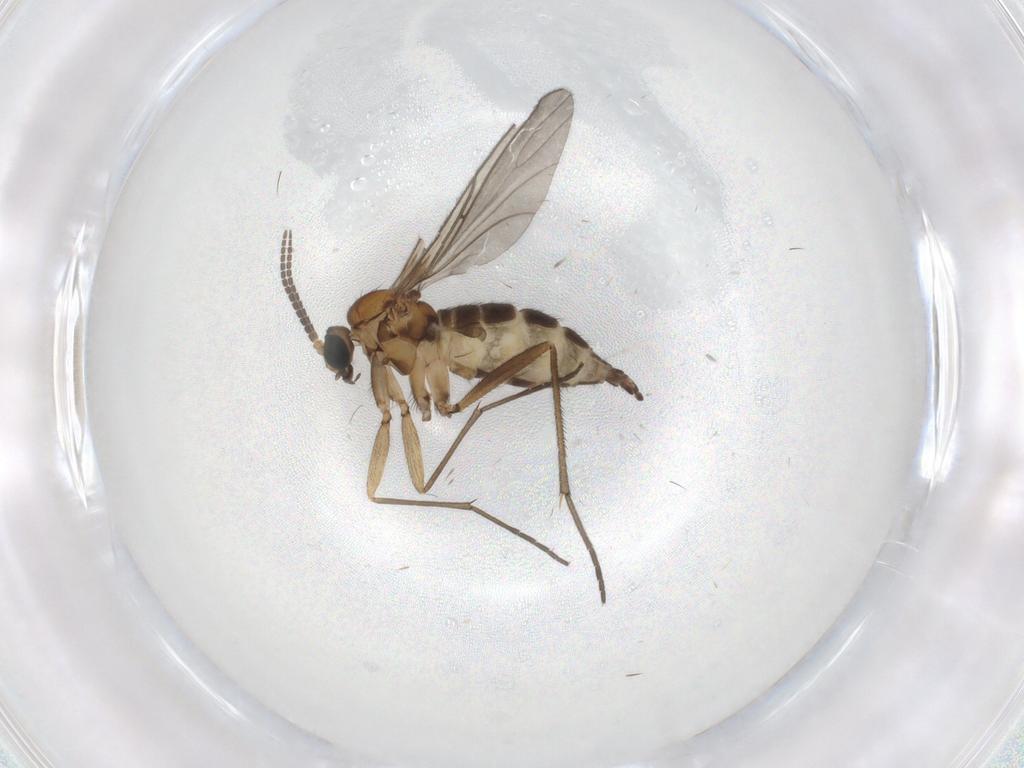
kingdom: Animalia
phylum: Arthropoda
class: Insecta
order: Diptera
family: Sciaridae
